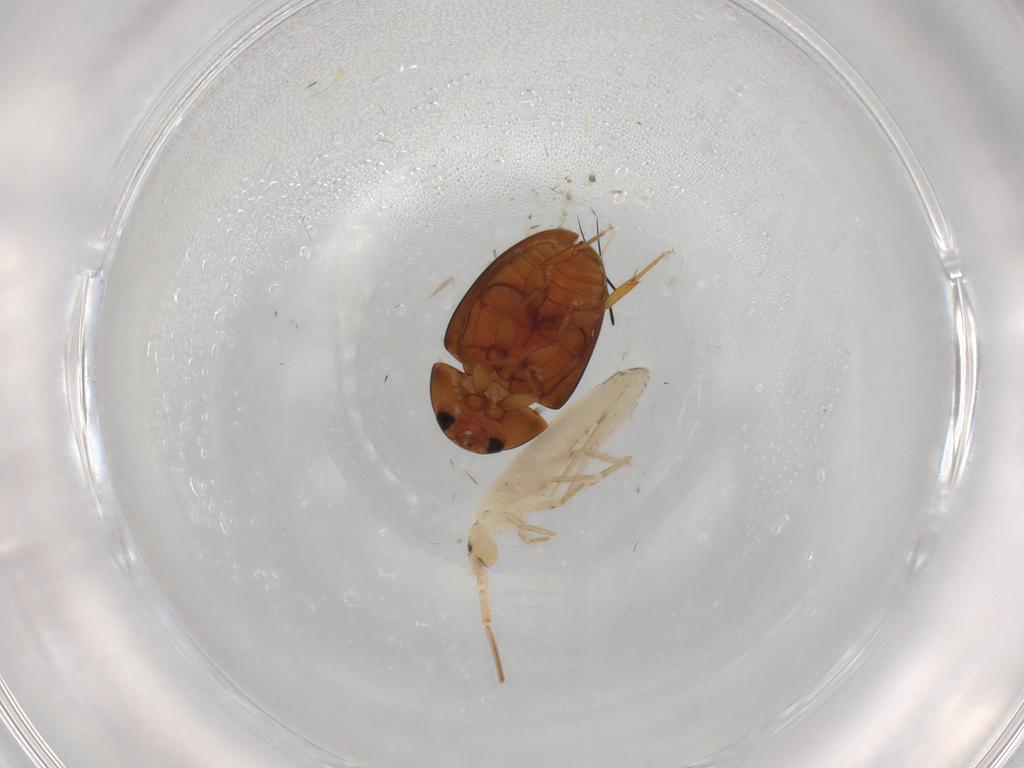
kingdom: Animalia
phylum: Arthropoda
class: Insecta
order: Coleoptera
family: Phalacridae
